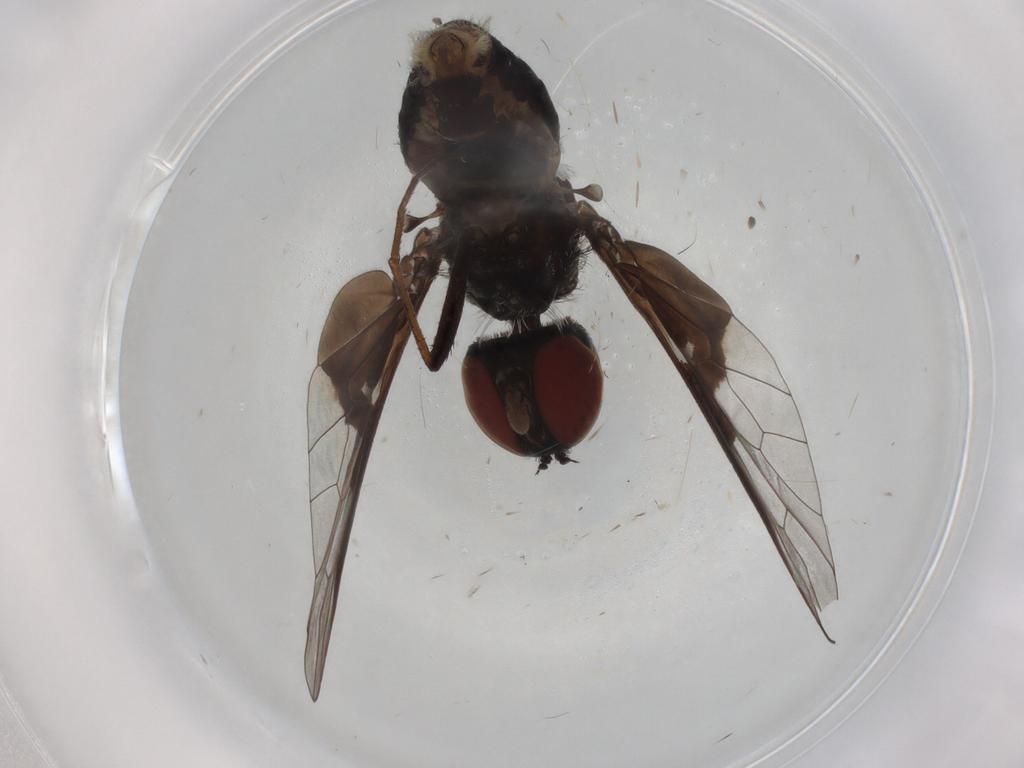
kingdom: Animalia
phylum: Arthropoda
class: Insecta
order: Diptera
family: Bombyliidae
